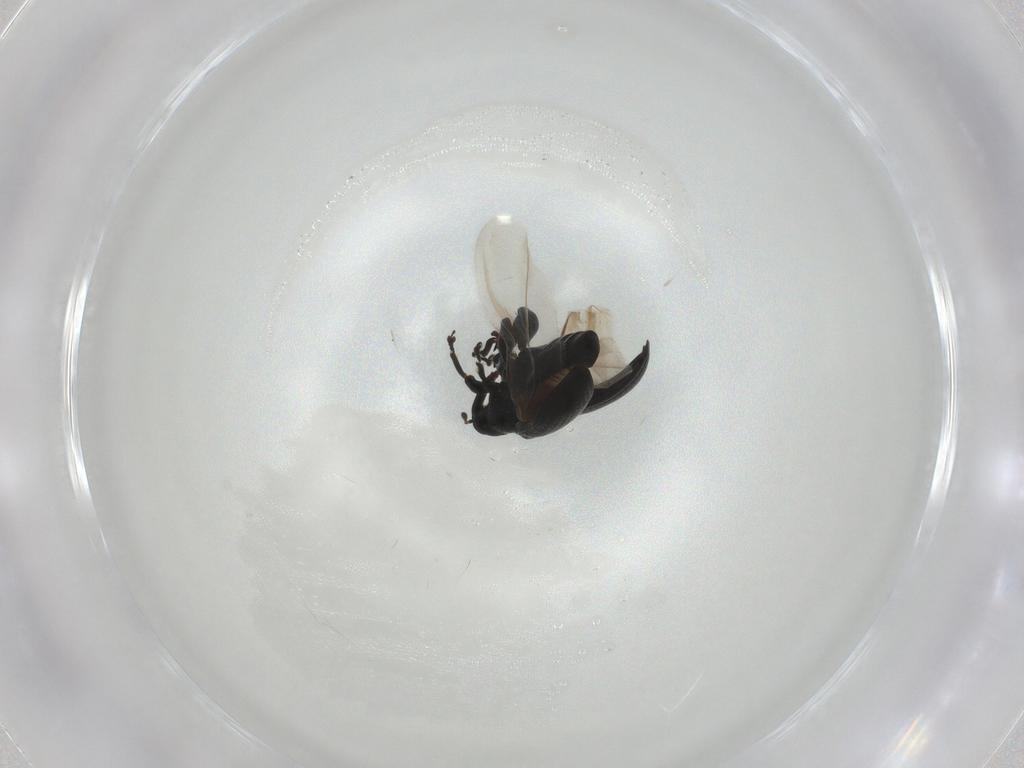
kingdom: Animalia
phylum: Arthropoda
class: Insecta
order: Coleoptera
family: Curculionidae
